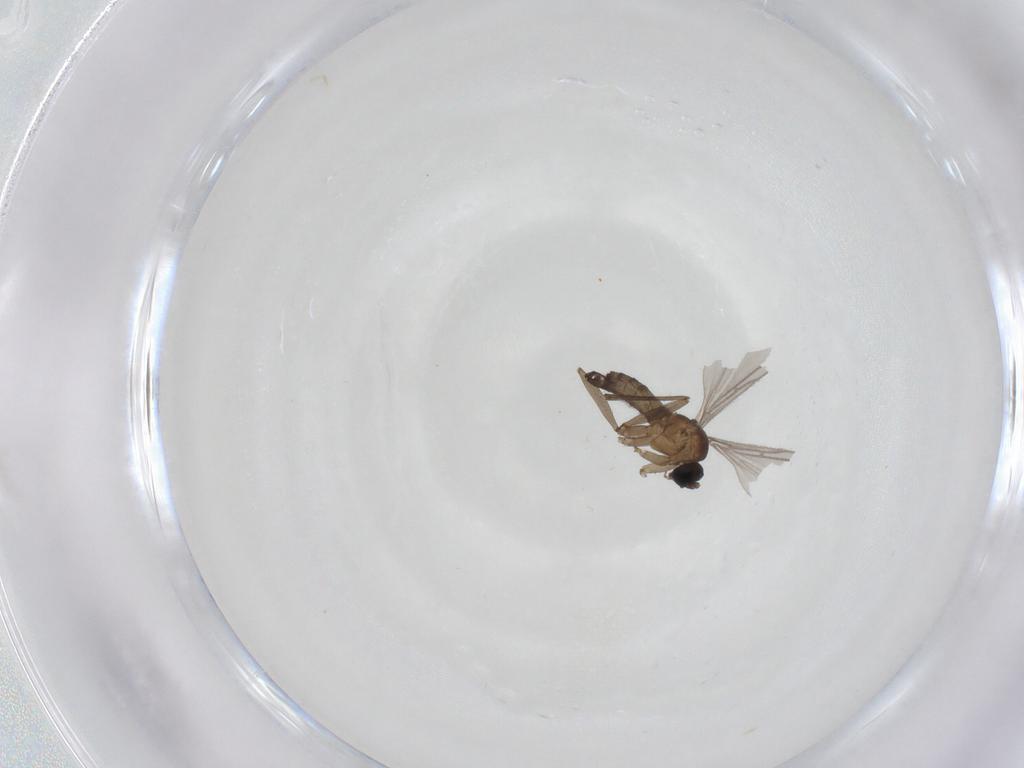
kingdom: Animalia
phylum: Arthropoda
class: Insecta
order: Diptera
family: Sciaridae
